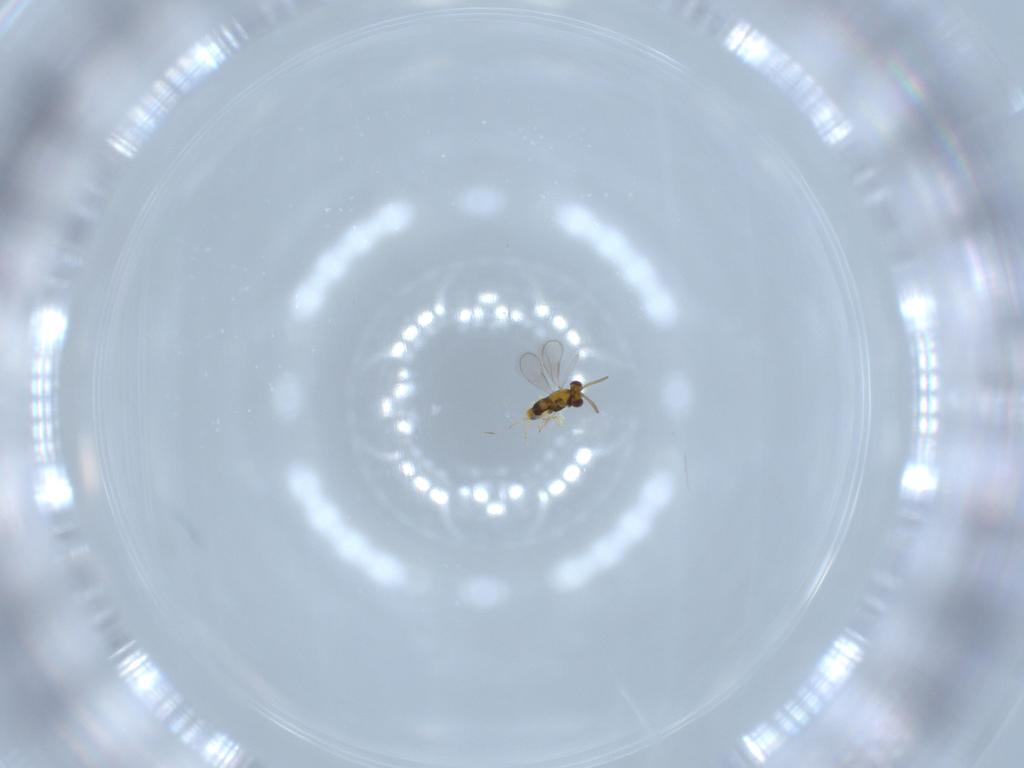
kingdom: Animalia
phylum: Arthropoda
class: Insecta
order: Hymenoptera
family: Aphelinidae
